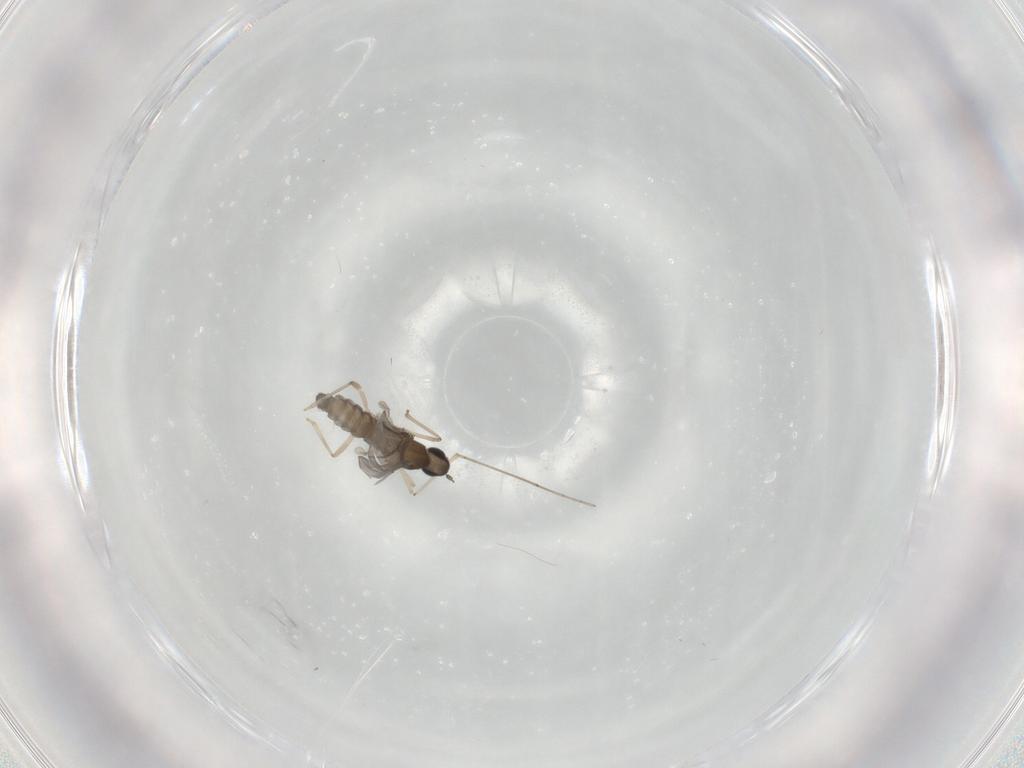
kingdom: Animalia
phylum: Arthropoda
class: Insecta
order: Diptera
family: Cecidomyiidae
